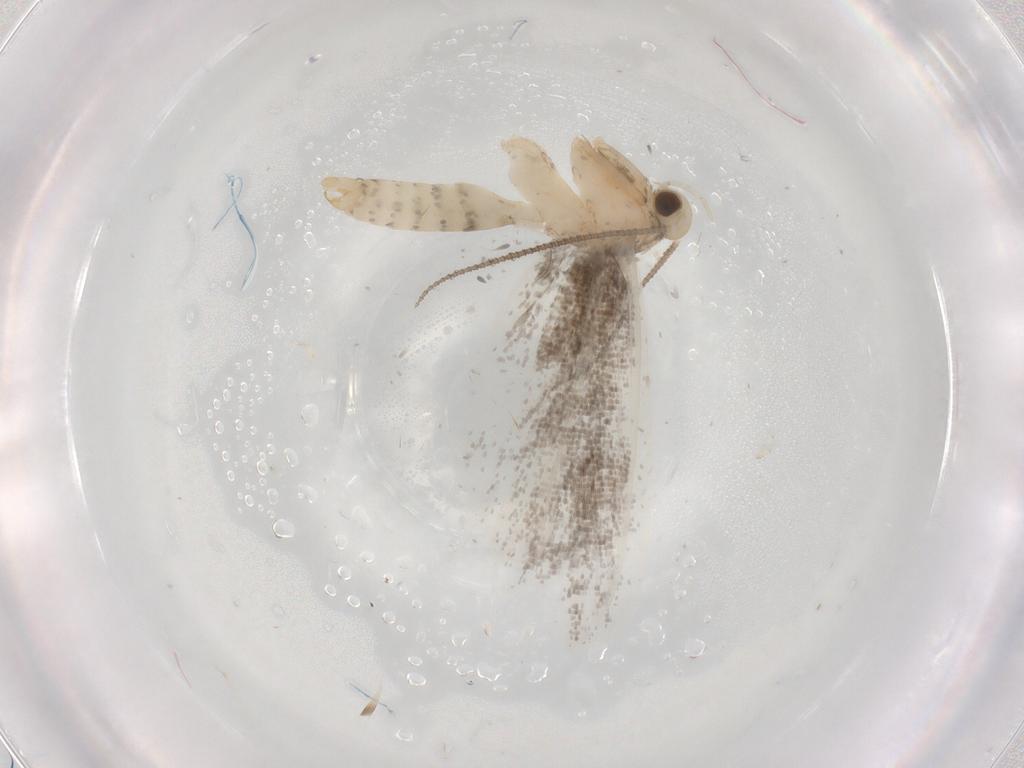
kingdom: Animalia
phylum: Arthropoda
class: Insecta
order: Lepidoptera
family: Nepticulidae
